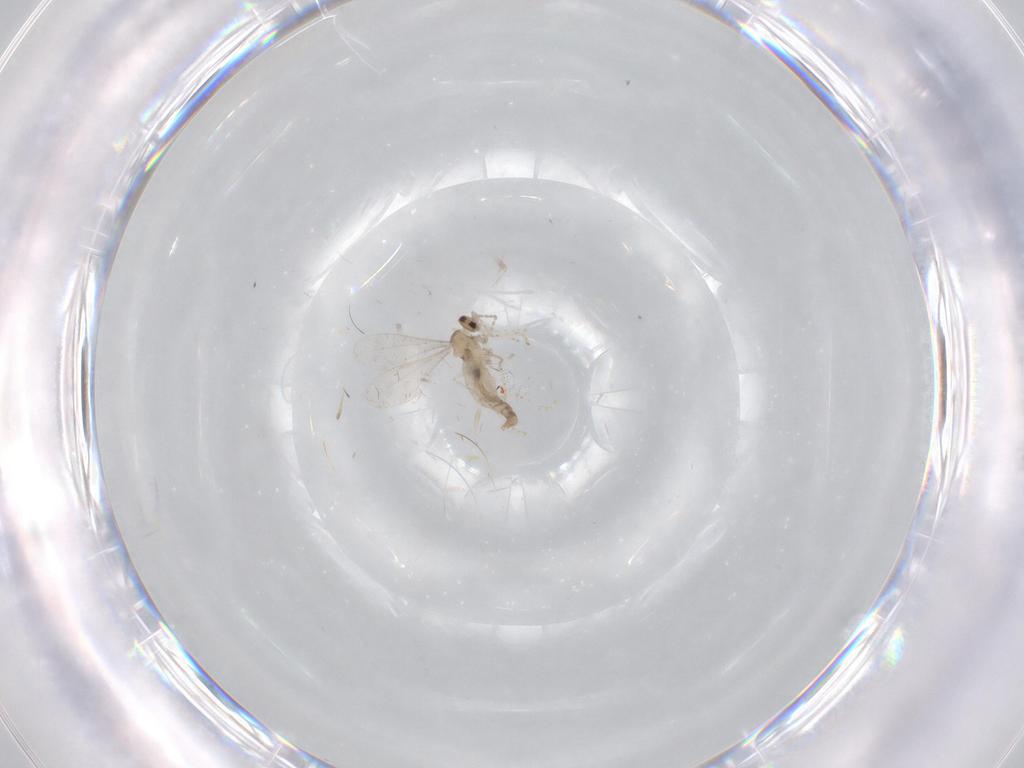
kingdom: Animalia
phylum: Arthropoda
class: Insecta
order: Diptera
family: Cecidomyiidae
